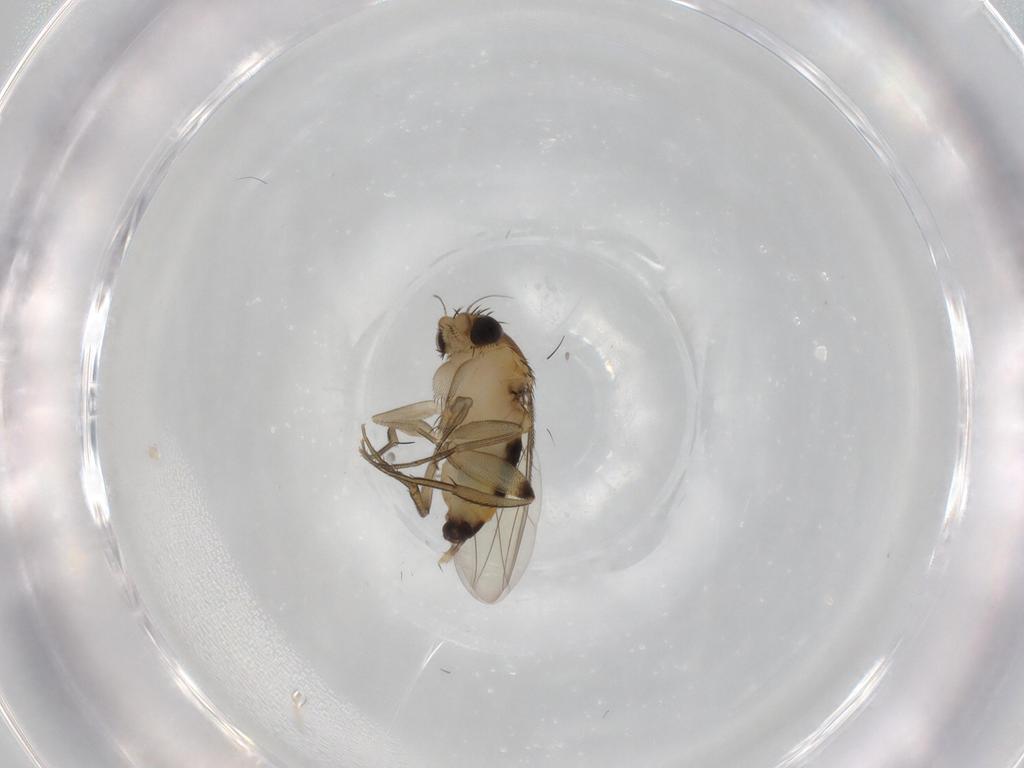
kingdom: Animalia
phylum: Arthropoda
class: Insecta
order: Diptera
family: Phoridae
